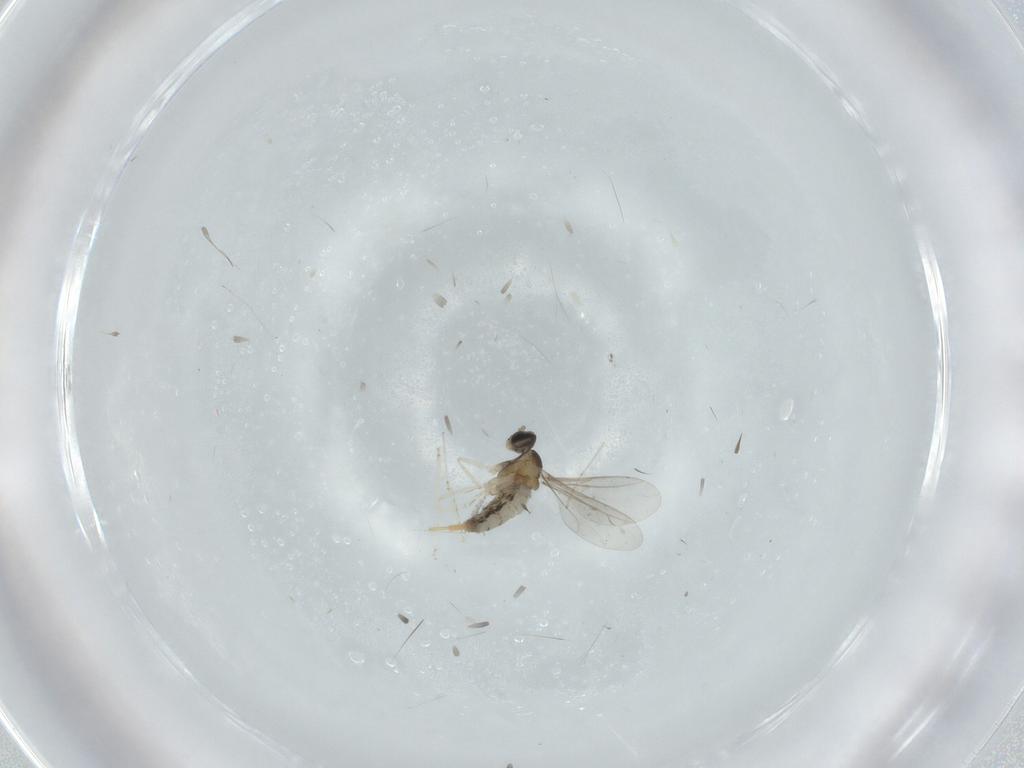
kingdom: Animalia
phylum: Arthropoda
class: Insecta
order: Diptera
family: Cecidomyiidae
